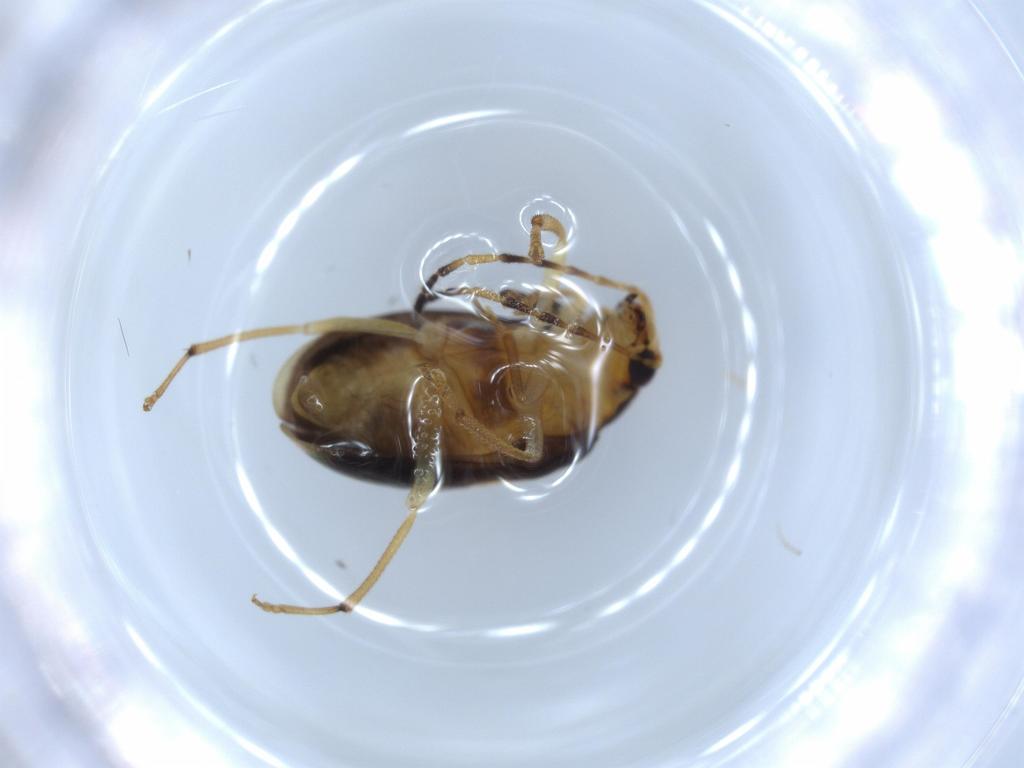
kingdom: Animalia
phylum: Arthropoda
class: Insecta
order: Coleoptera
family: Chrysomelidae
